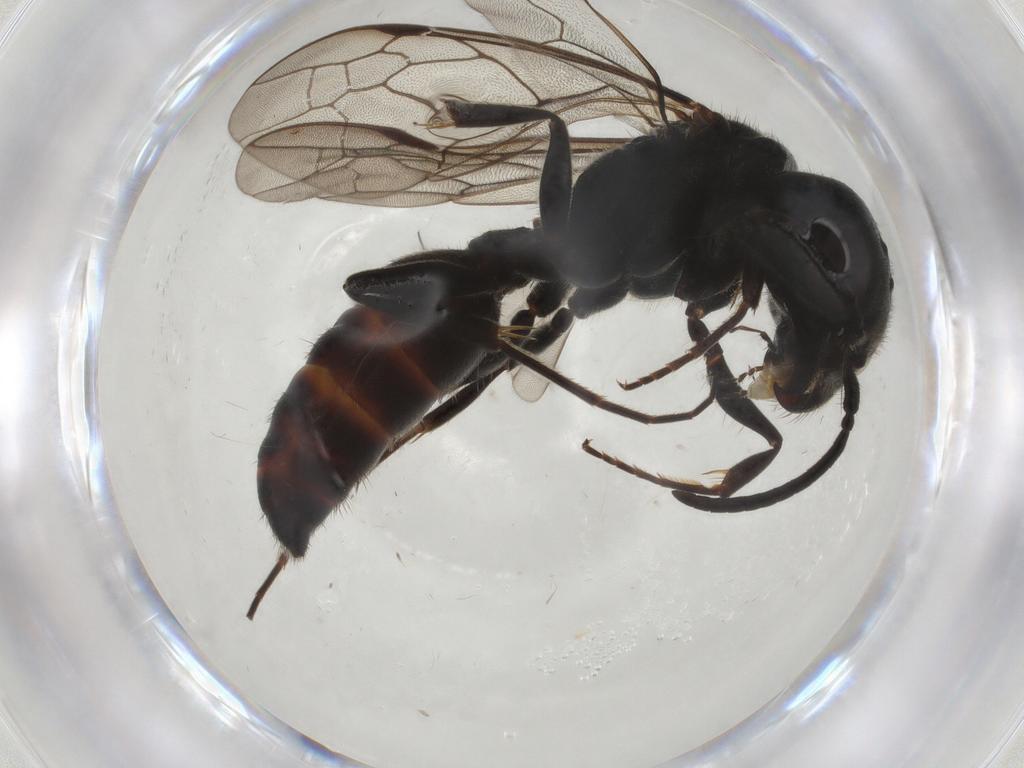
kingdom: Animalia
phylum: Arthropoda
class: Insecta
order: Hymenoptera
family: Myrmosidae
